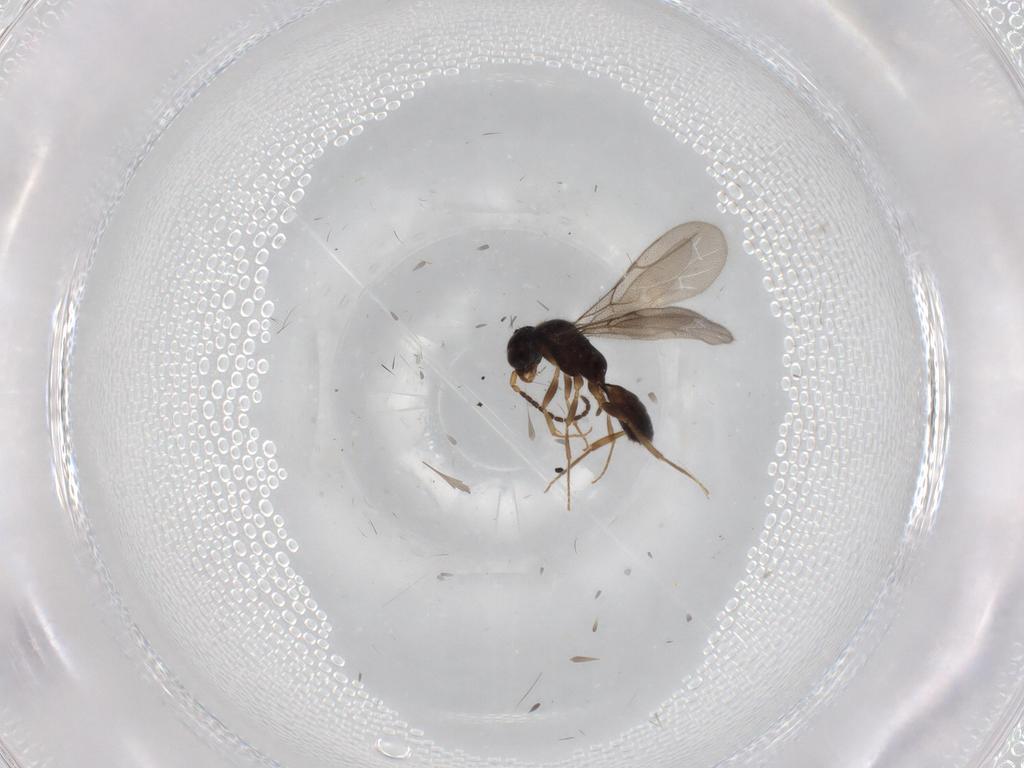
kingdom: Animalia
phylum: Arthropoda
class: Insecta
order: Hymenoptera
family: Bethylidae
